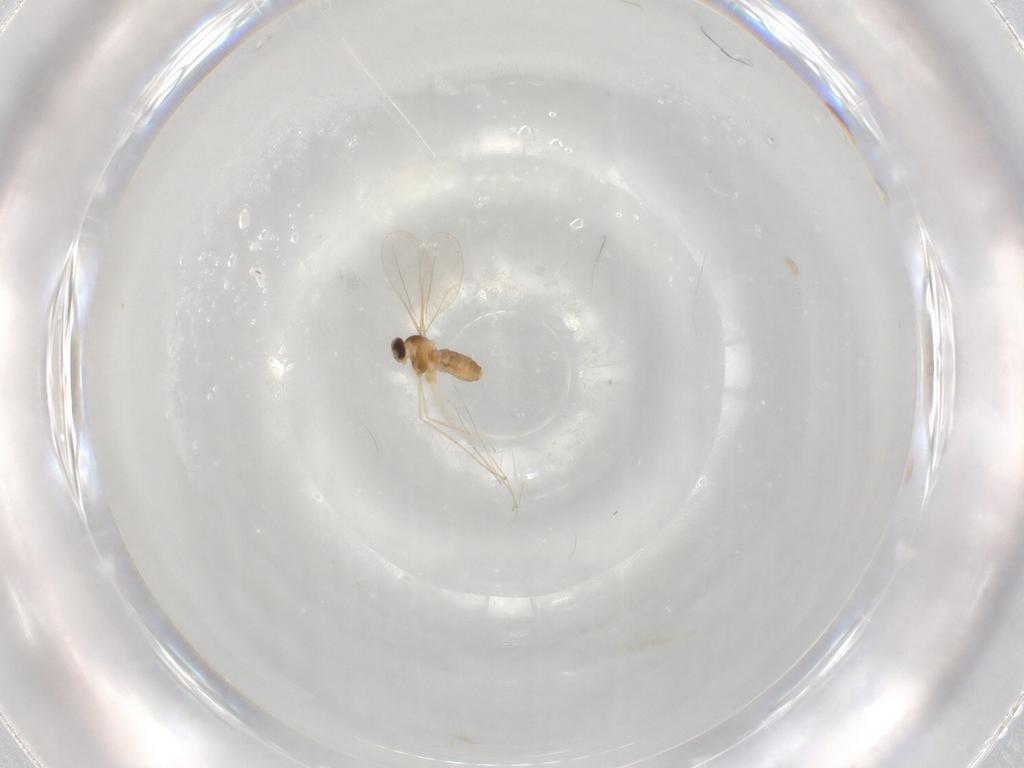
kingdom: Animalia
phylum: Arthropoda
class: Insecta
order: Diptera
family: Cecidomyiidae
